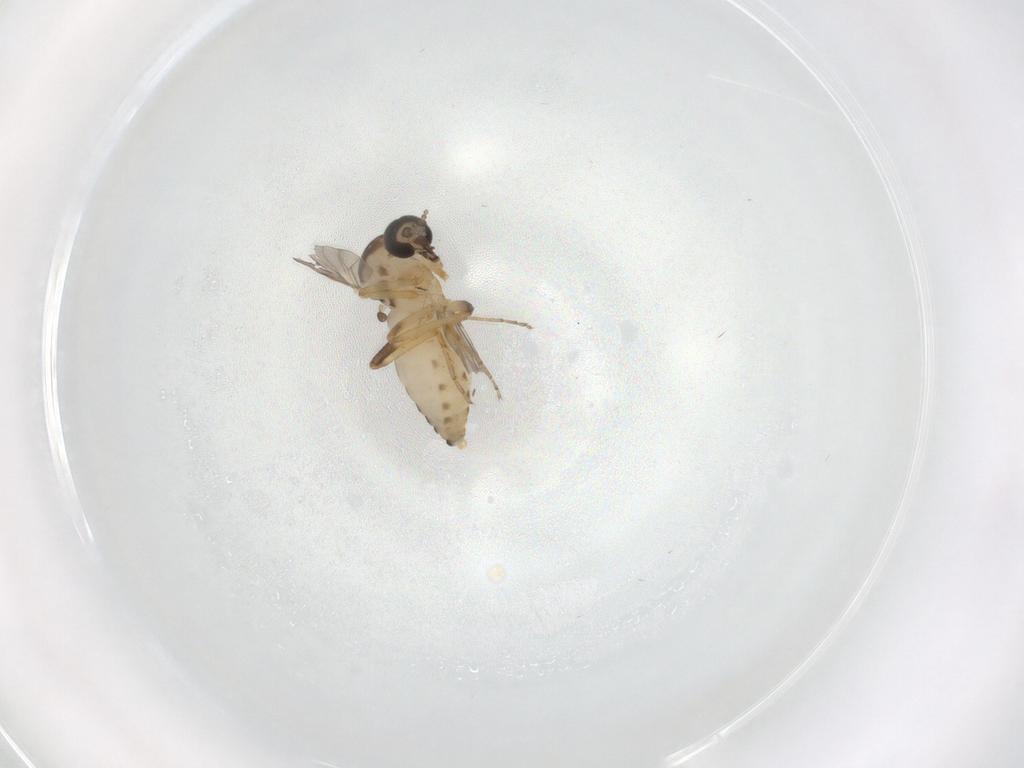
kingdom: Animalia
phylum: Arthropoda
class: Insecta
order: Diptera
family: Ceratopogonidae
